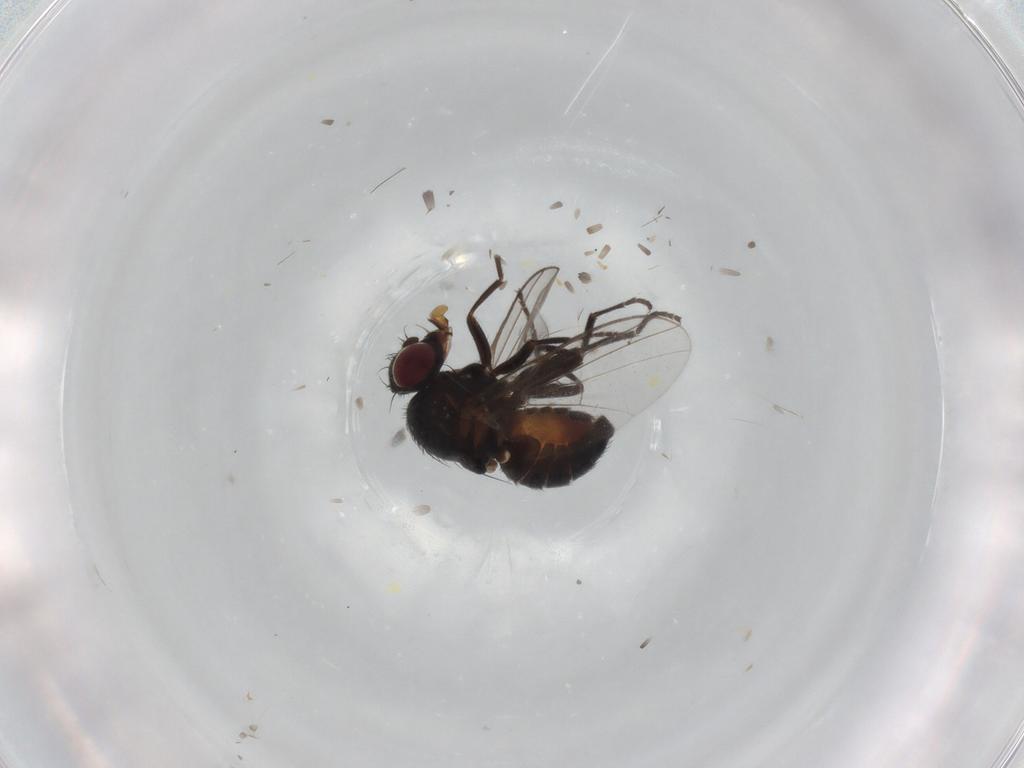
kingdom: Animalia
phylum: Arthropoda
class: Insecta
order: Diptera
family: Agromyzidae
